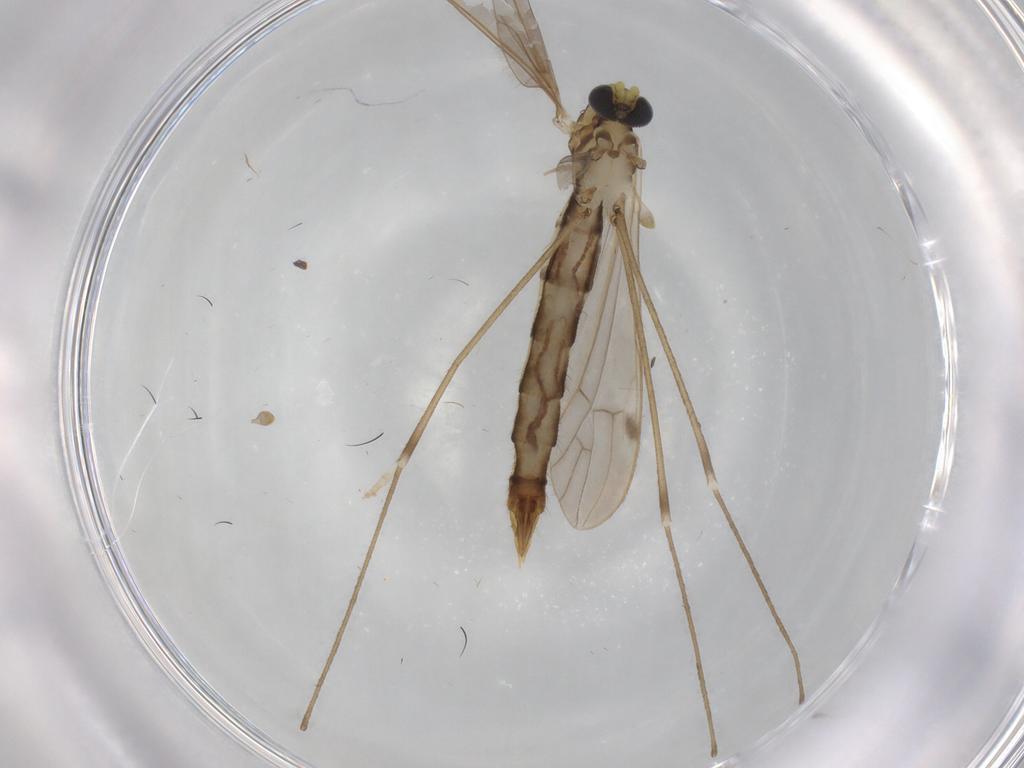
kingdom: Animalia
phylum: Arthropoda
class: Insecta
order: Diptera
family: Limoniidae
